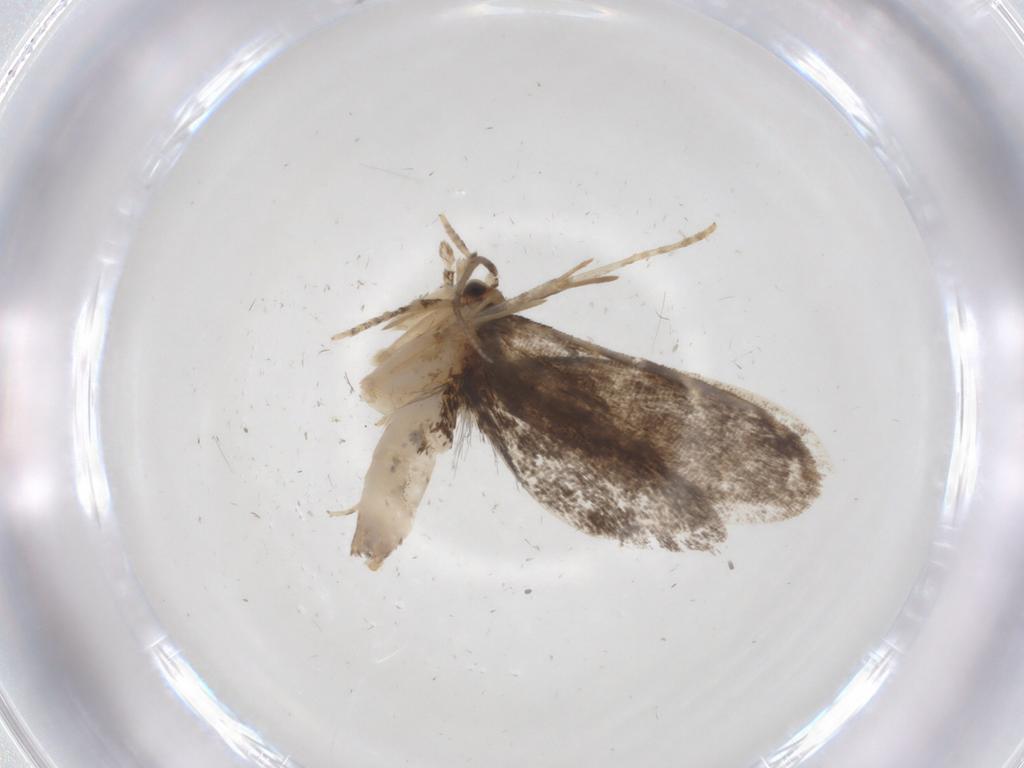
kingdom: Animalia
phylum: Arthropoda
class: Insecta
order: Lepidoptera
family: Dryadaulidae
